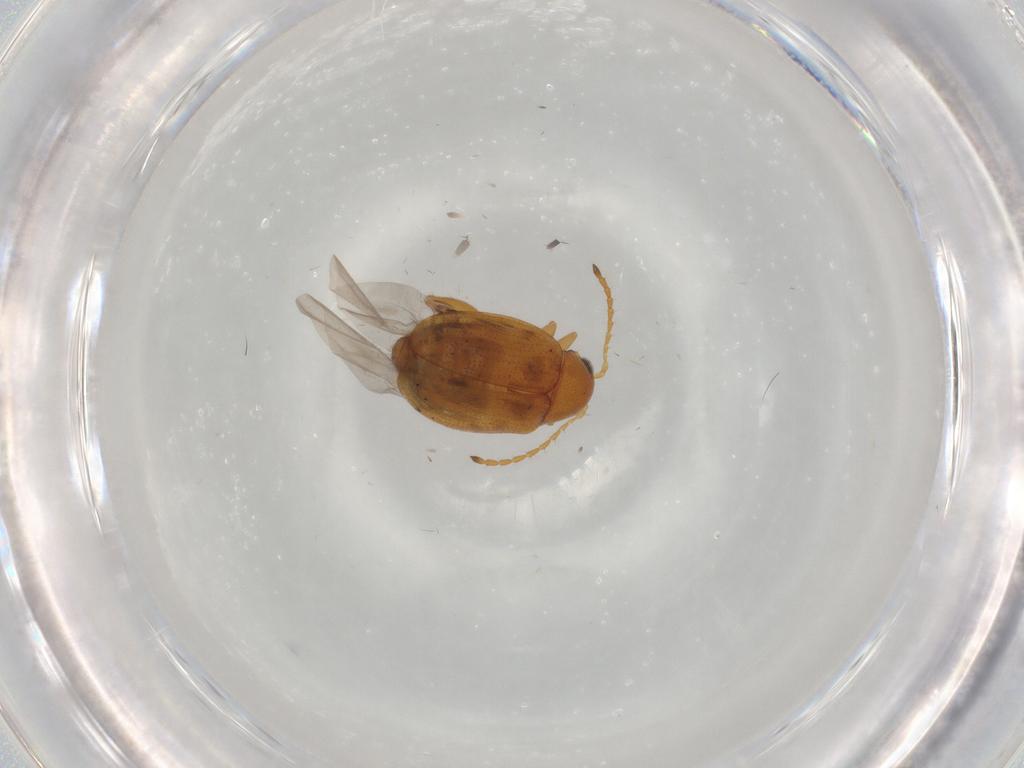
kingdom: Animalia
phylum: Arthropoda
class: Insecta
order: Coleoptera
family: Chrysomelidae
